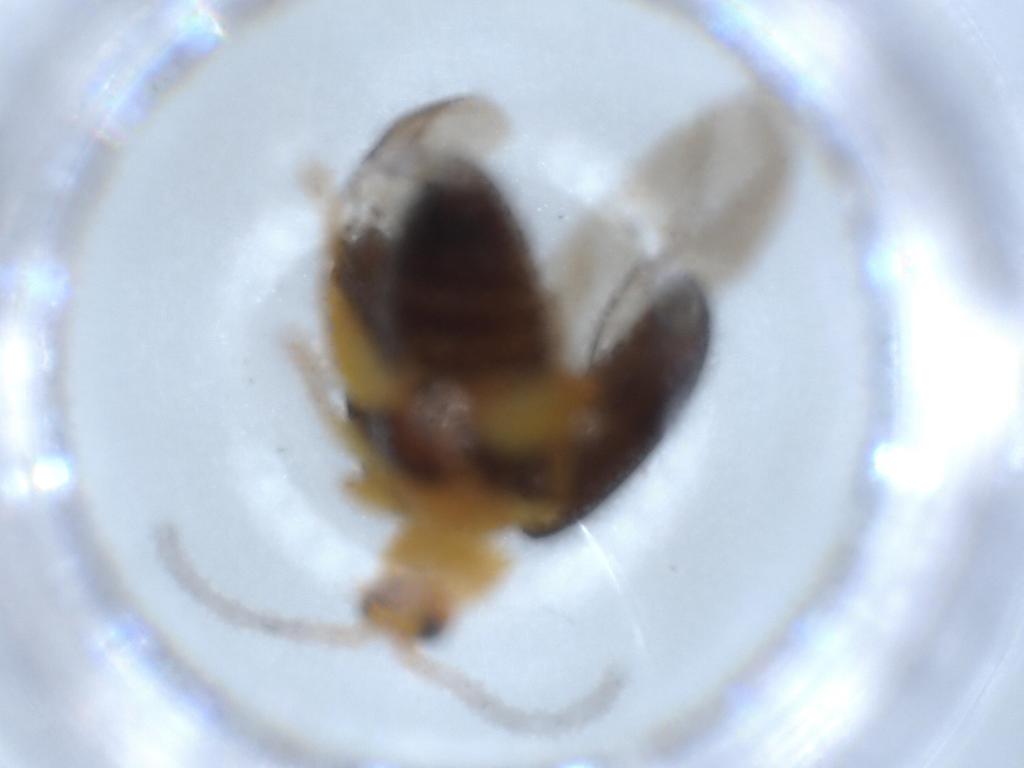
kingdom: Animalia
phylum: Arthropoda
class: Insecta
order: Coleoptera
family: Chrysomelidae
